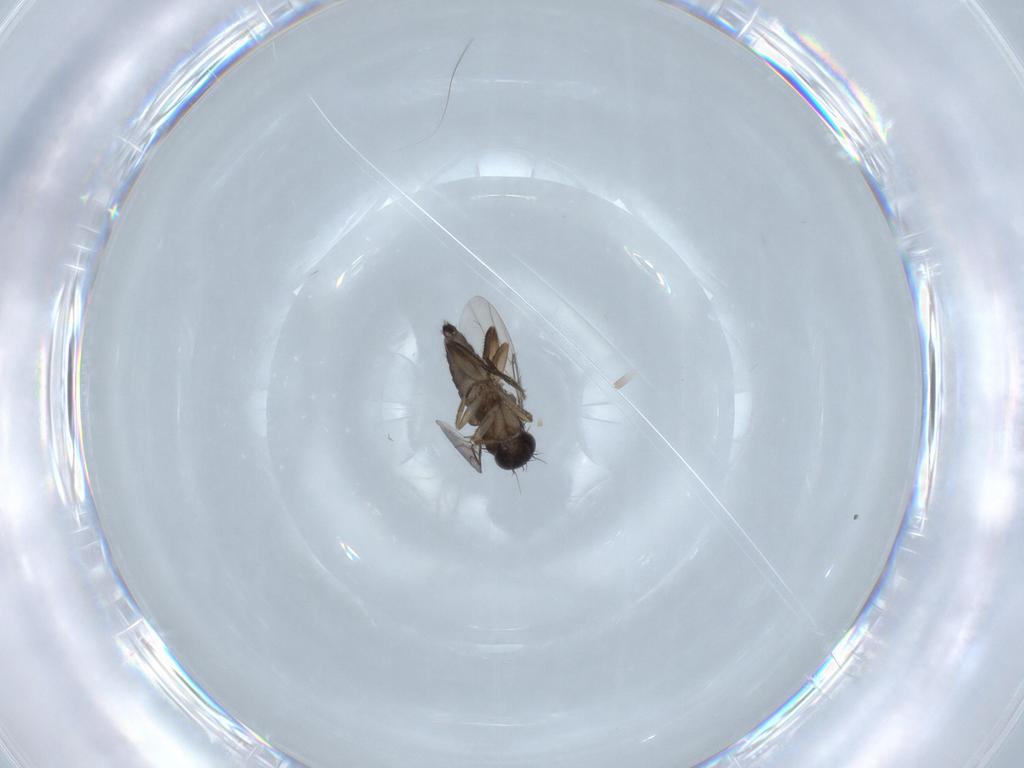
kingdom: Animalia
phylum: Arthropoda
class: Insecta
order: Diptera
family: Phoridae
